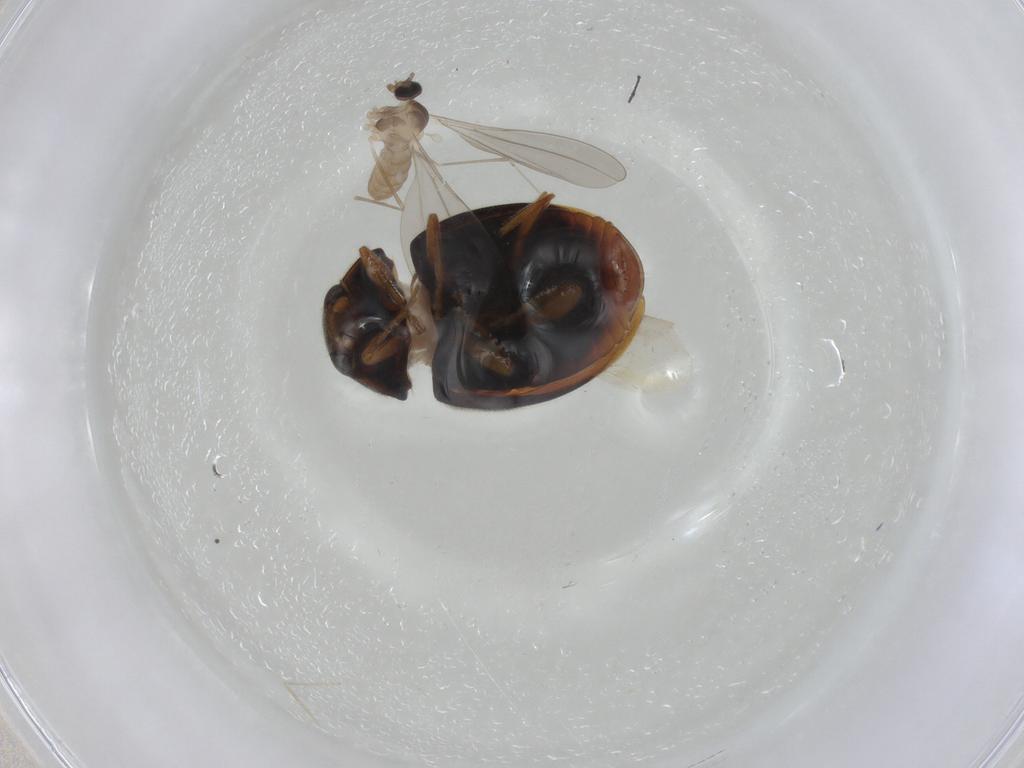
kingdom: Animalia
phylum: Arthropoda
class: Insecta
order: Diptera
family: Cecidomyiidae
